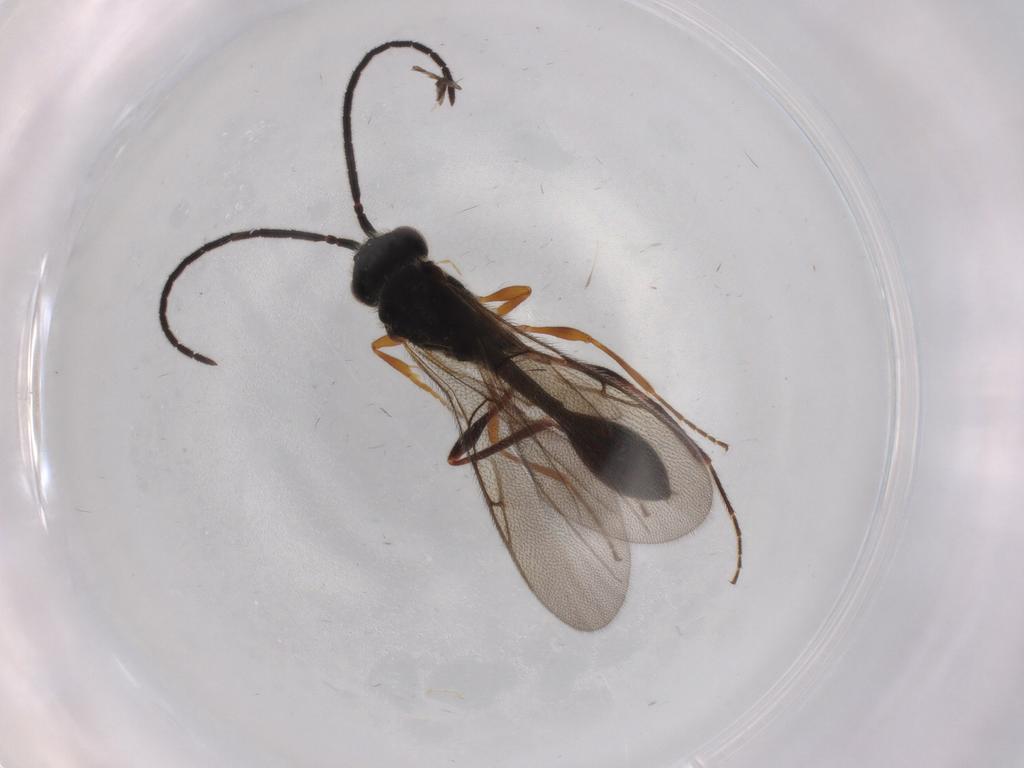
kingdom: Animalia
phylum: Arthropoda
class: Insecta
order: Hymenoptera
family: Diapriidae
